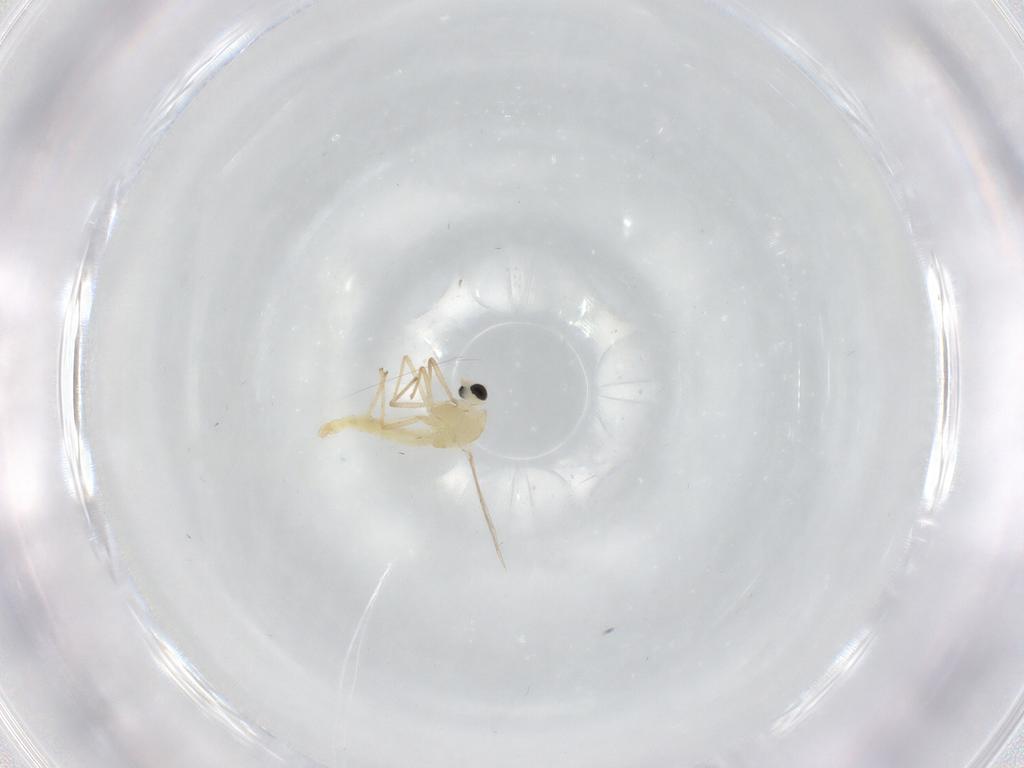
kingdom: Animalia
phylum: Arthropoda
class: Insecta
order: Diptera
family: Chironomidae
